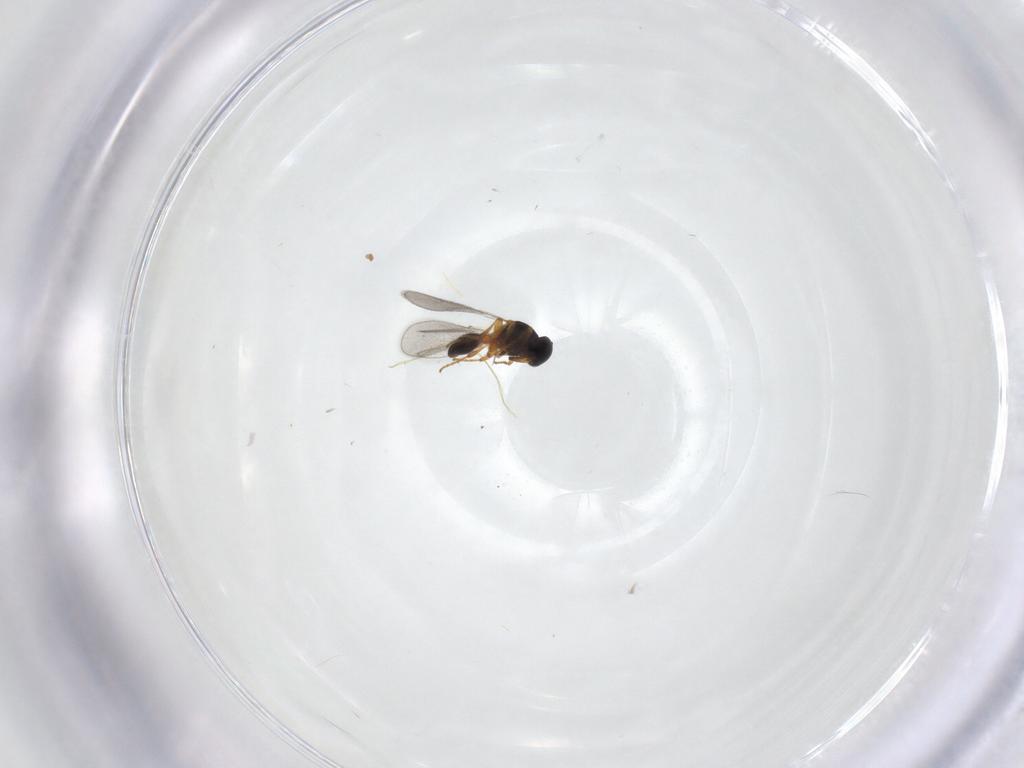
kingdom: Animalia
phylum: Arthropoda
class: Insecta
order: Hymenoptera
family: Platygastridae
